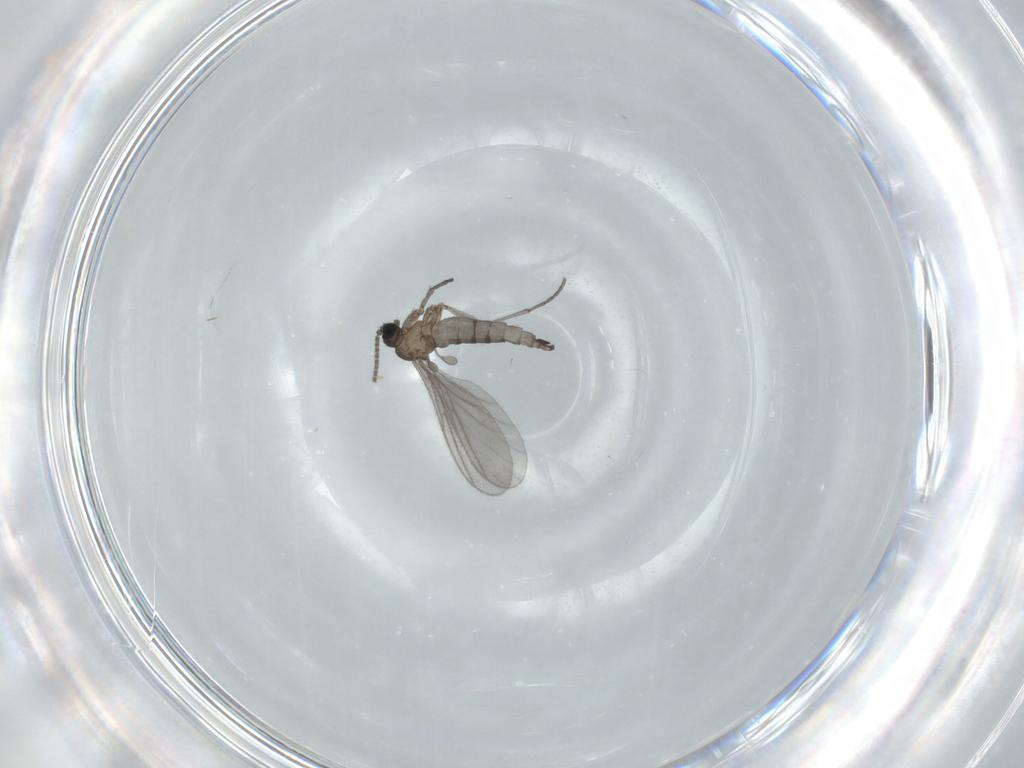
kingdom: Animalia
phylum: Arthropoda
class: Insecta
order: Diptera
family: Sciaridae
